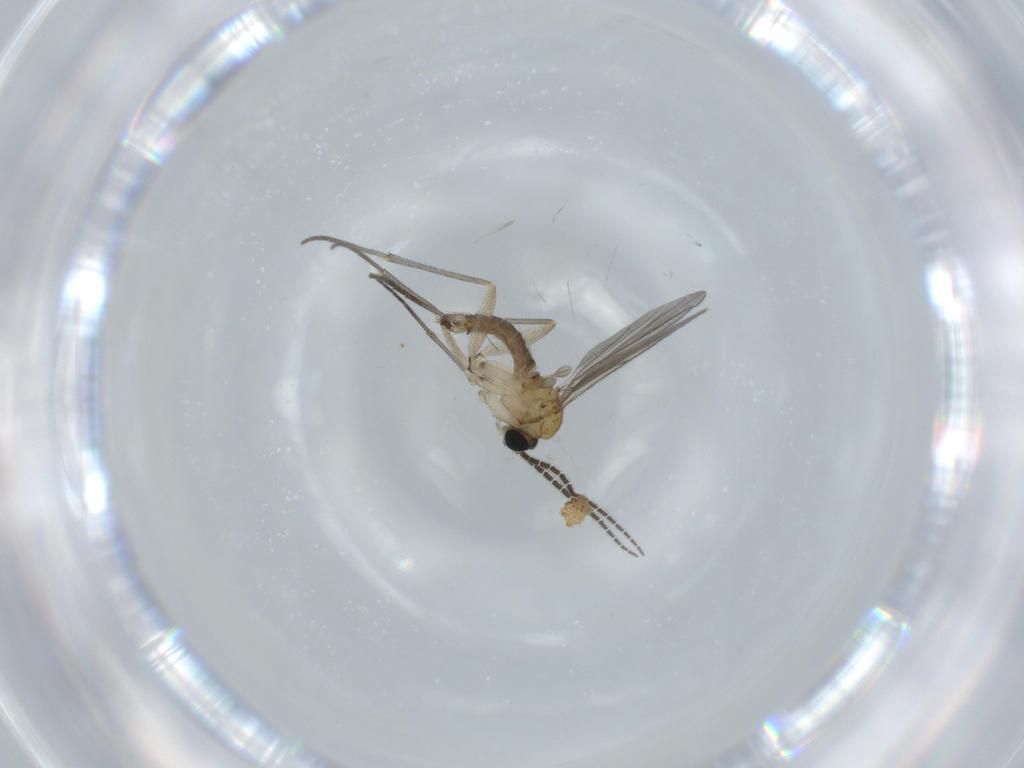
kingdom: Animalia
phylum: Arthropoda
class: Insecta
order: Diptera
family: Sciaridae
